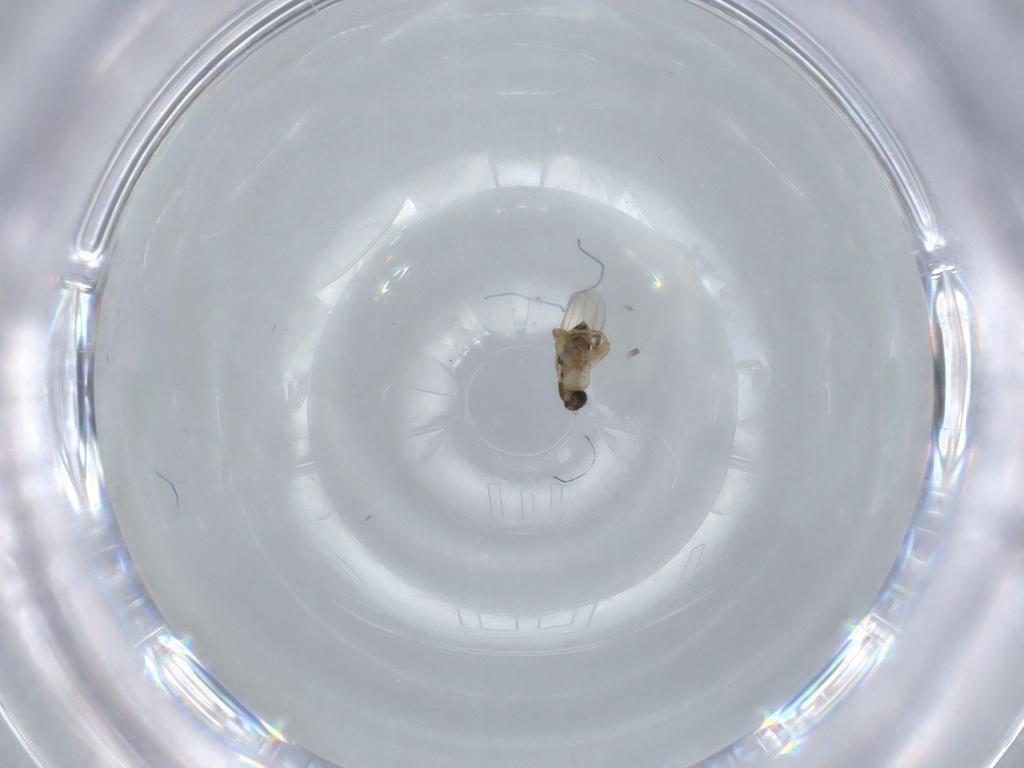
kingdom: Animalia
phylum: Arthropoda
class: Insecta
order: Diptera
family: Phoridae
